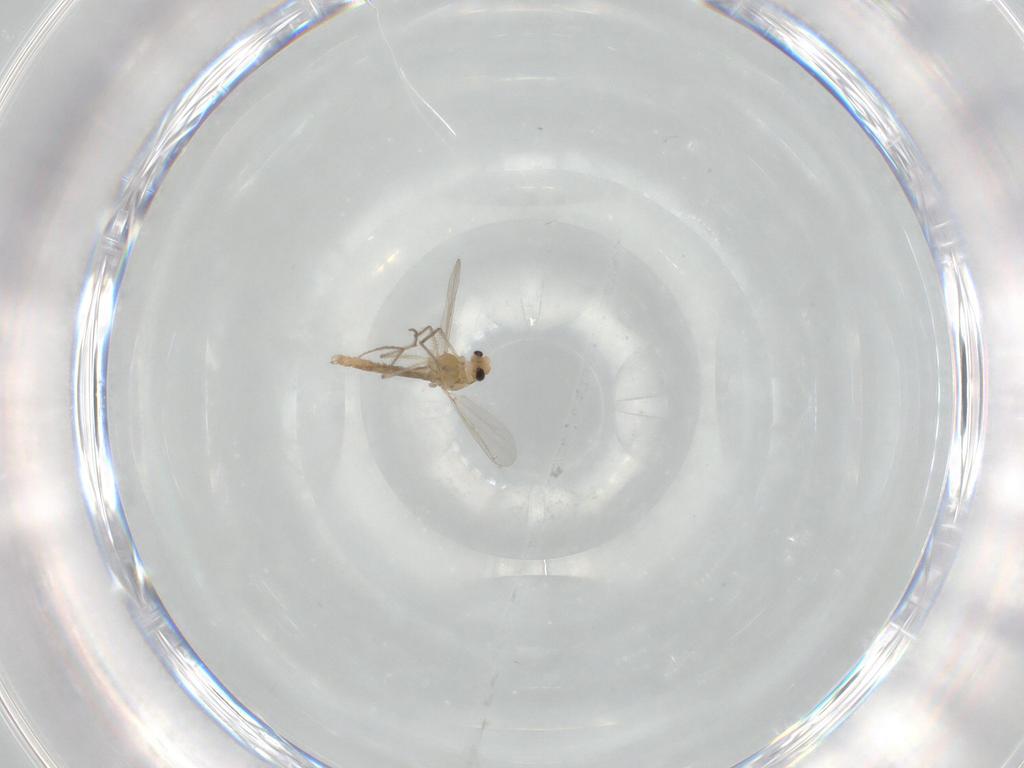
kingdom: Animalia
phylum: Arthropoda
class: Insecta
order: Diptera
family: Chironomidae
